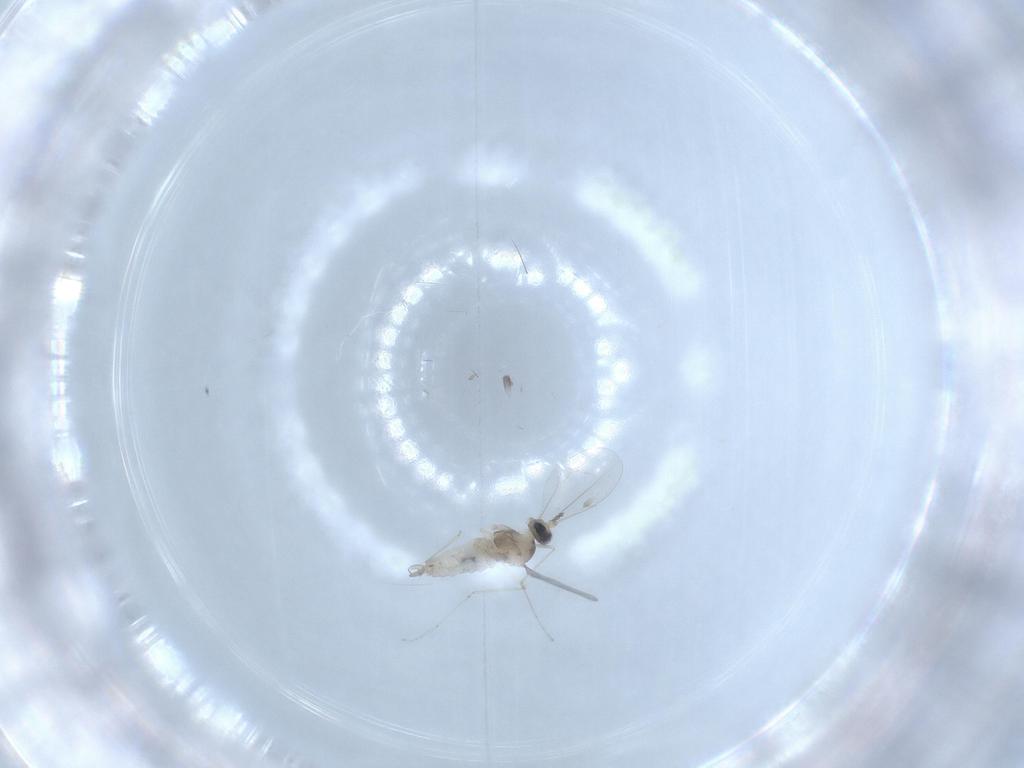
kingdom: Animalia
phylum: Arthropoda
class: Insecta
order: Diptera
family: Cecidomyiidae
